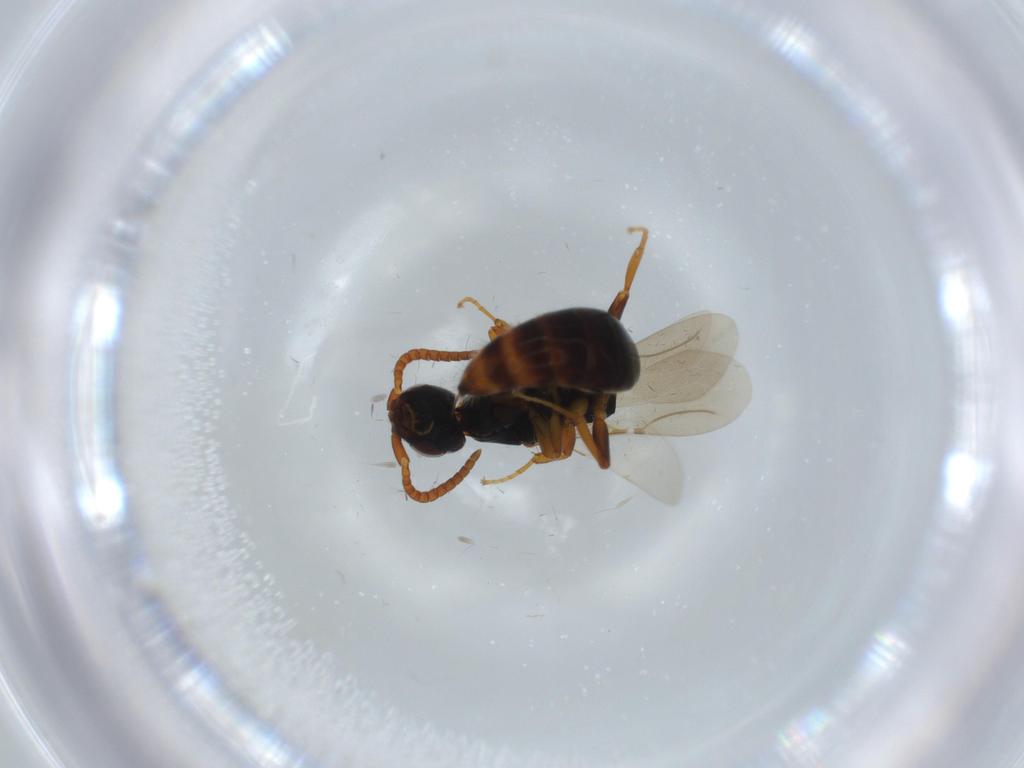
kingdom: Animalia
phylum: Arthropoda
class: Insecta
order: Hymenoptera
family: Bethylidae
